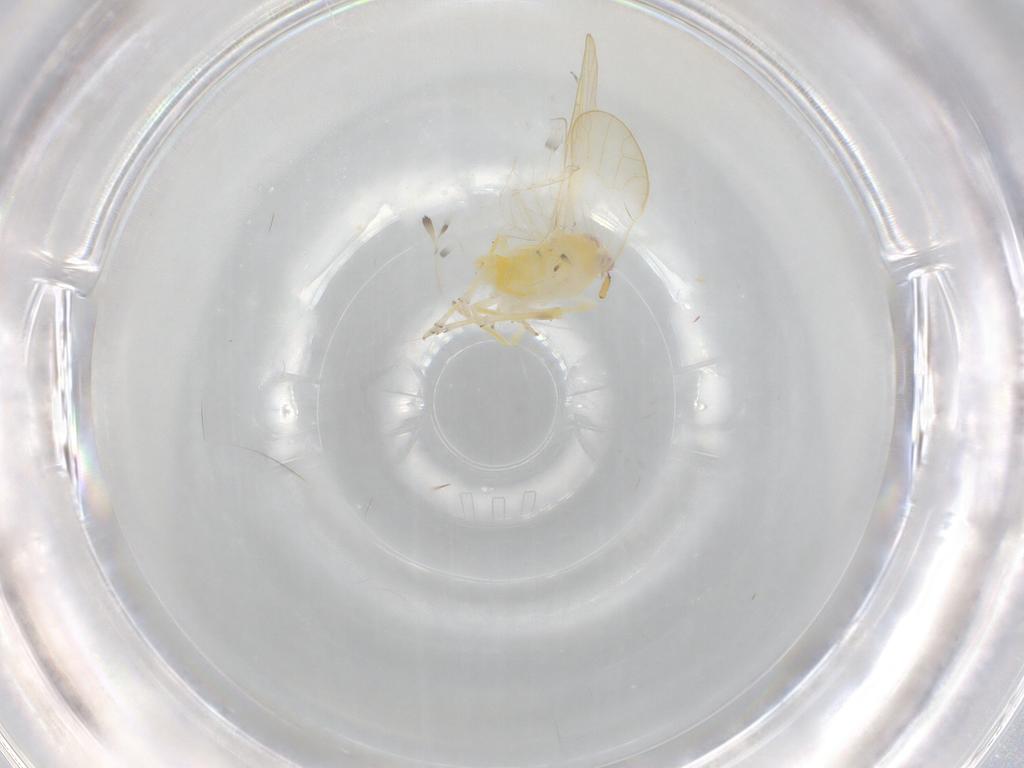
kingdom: Animalia
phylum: Arthropoda
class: Insecta
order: Hemiptera
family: Delphacidae
